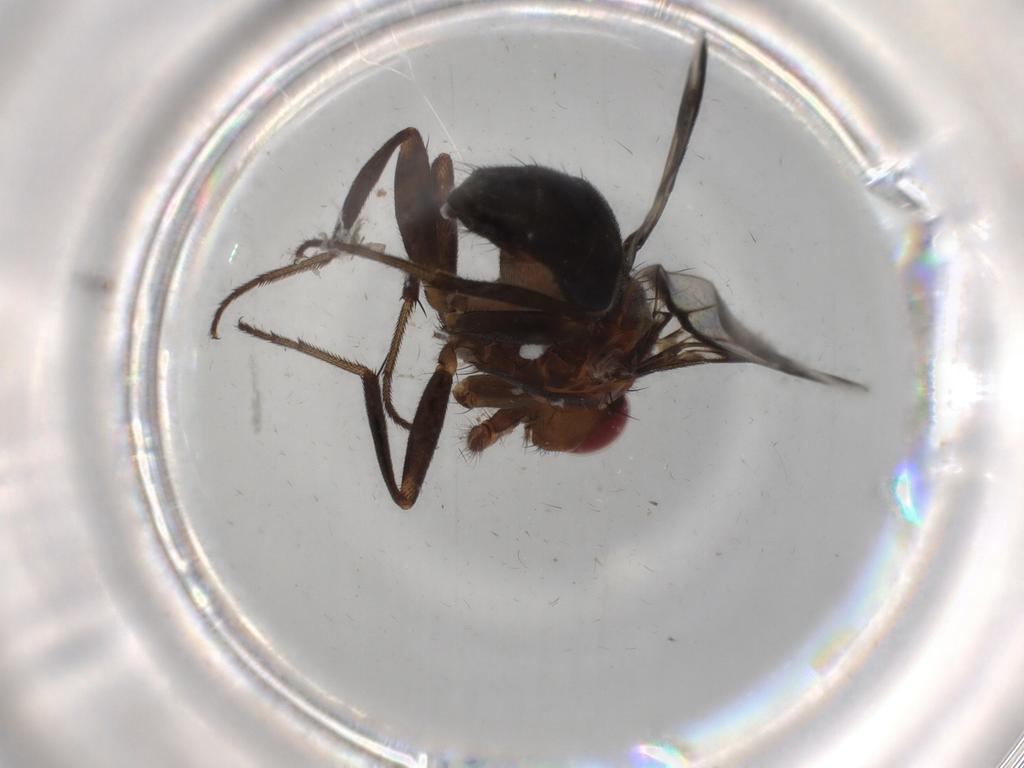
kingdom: Animalia
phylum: Arthropoda
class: Insecta
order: Diptera
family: Richardiidae
